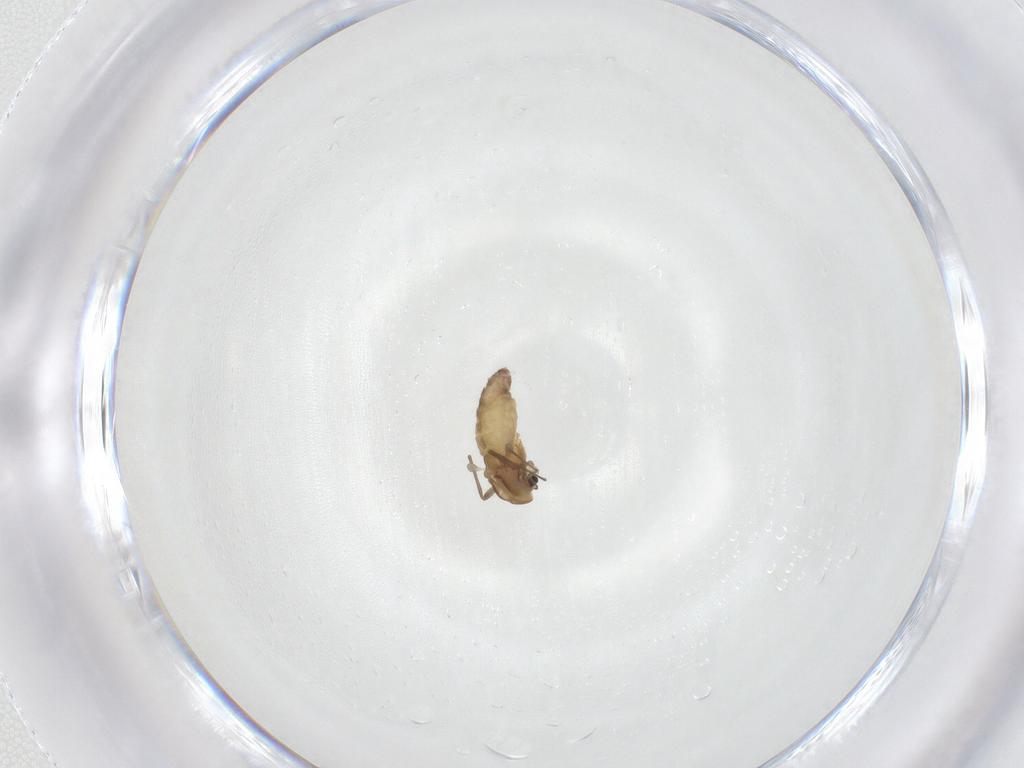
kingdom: Animalia
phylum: Arthropoda
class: Insecta
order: Diptera
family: Chironomidae
